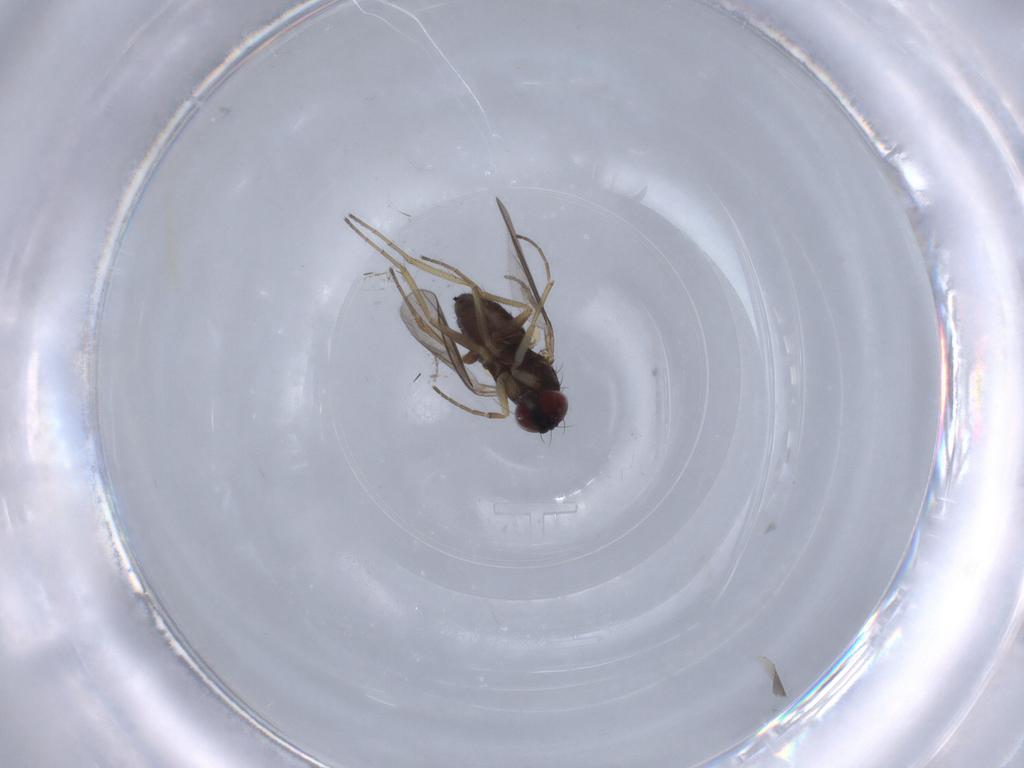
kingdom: Animalia
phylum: Arthropoda
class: Insecta
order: Diptera
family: Dolichopodidae
